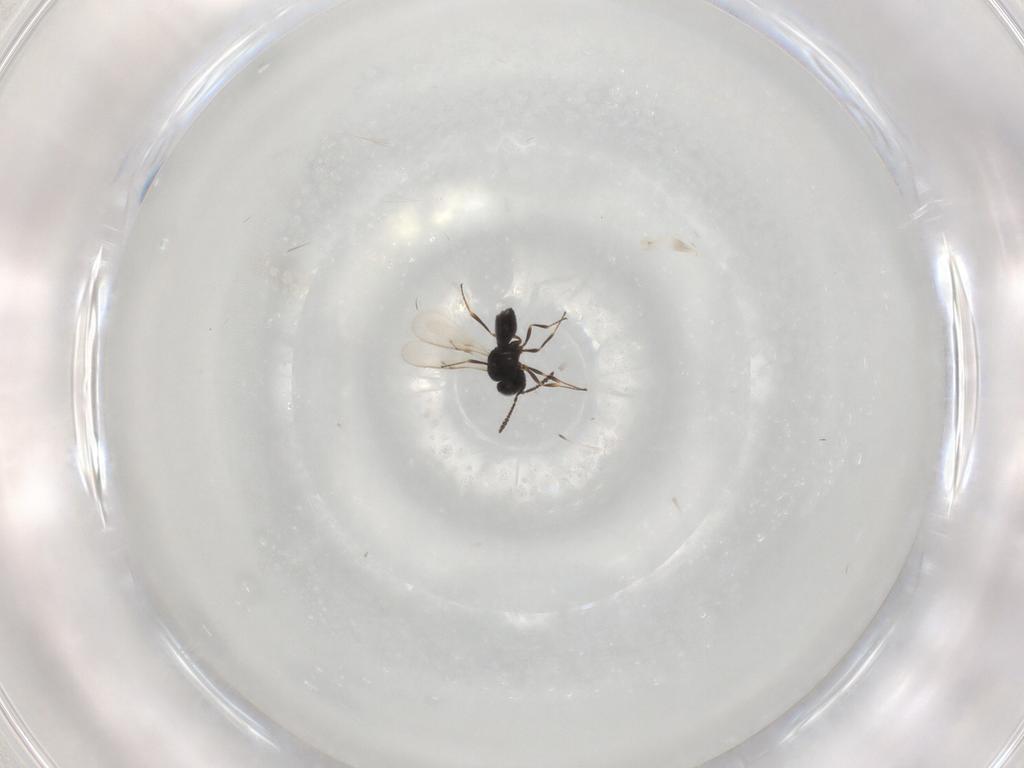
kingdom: Animalia
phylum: Arthropoda
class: Insecta
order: Hymenoptera
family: Scelionidae
